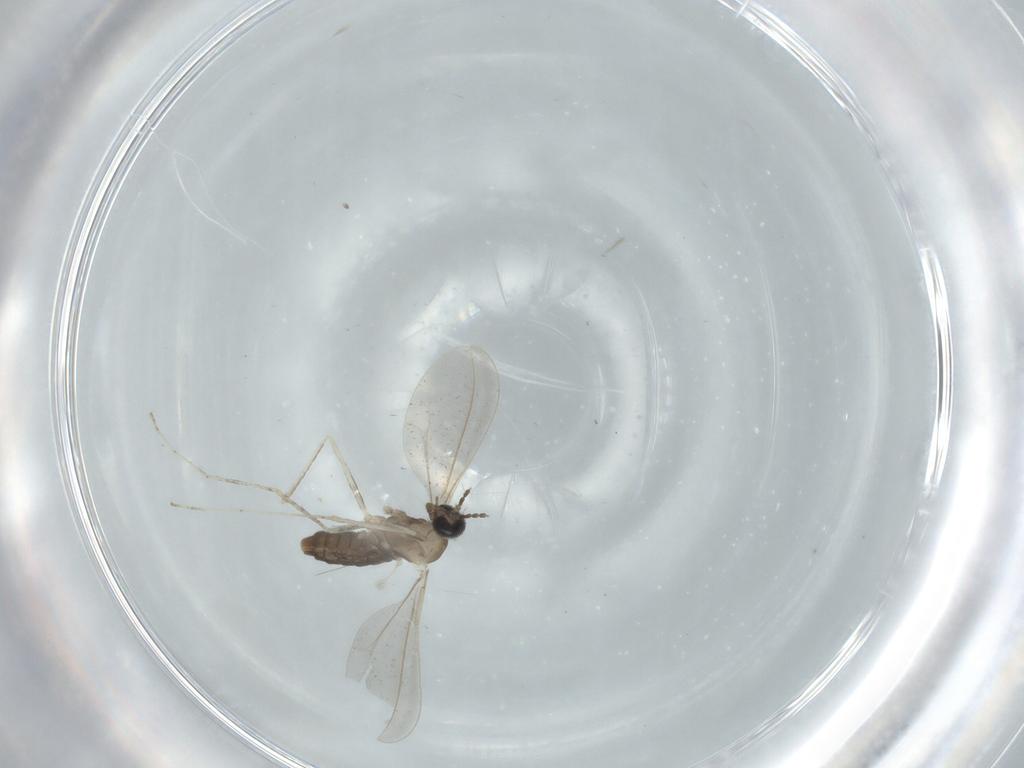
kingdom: Animalia
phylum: Arthropoda
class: Insecta
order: Diptera
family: Cecidomyiidae
